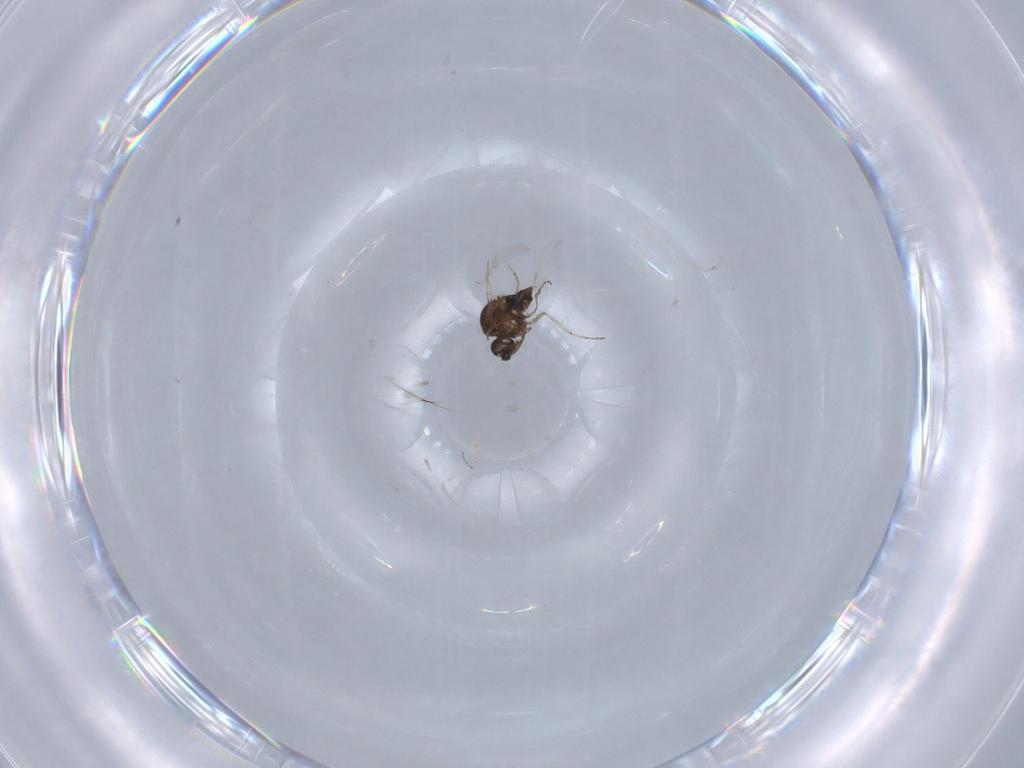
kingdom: Animalia
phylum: Arthropoda
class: Insecta
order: Diptera
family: Ceratopogonidae
